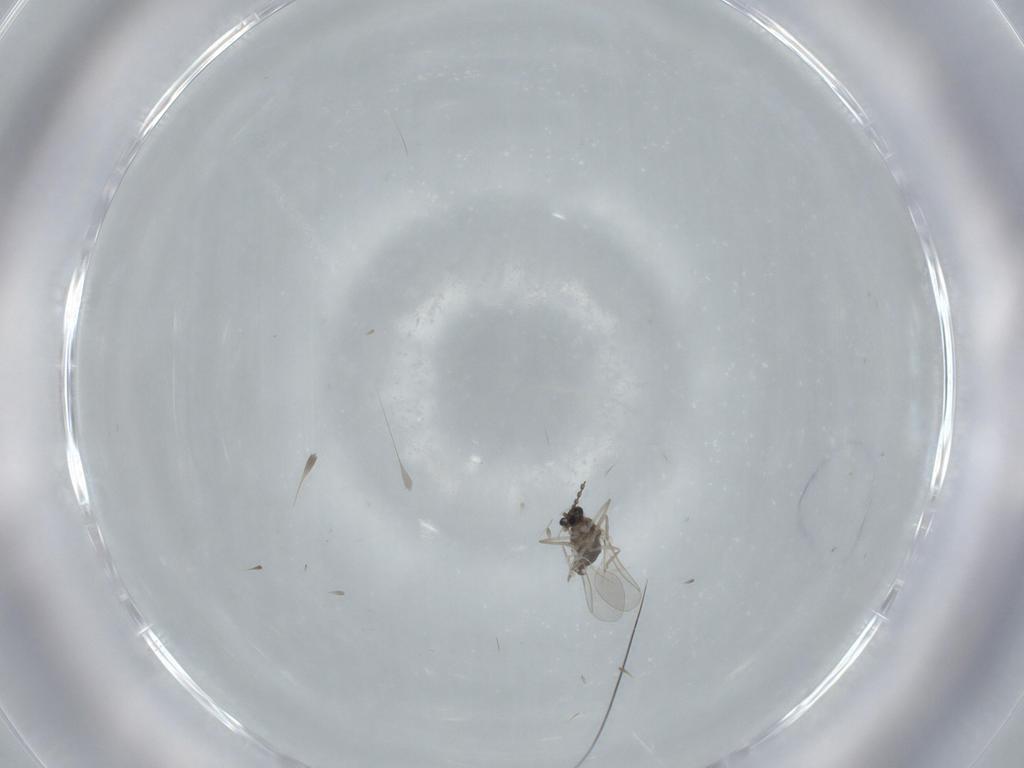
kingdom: Animalia
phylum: Arthropoda
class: Insecta
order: Diptera
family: Cecidomyiidae
